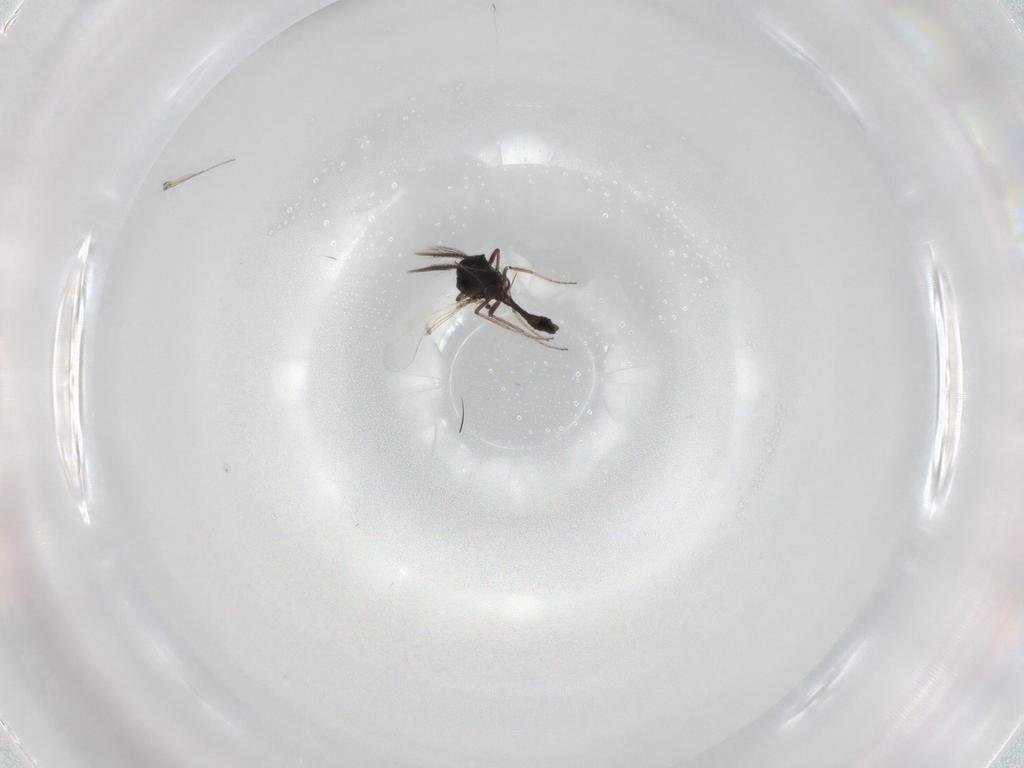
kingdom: Animalia
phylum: Arthropoda
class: Insecta
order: Diptera
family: Ceratopogonidae
